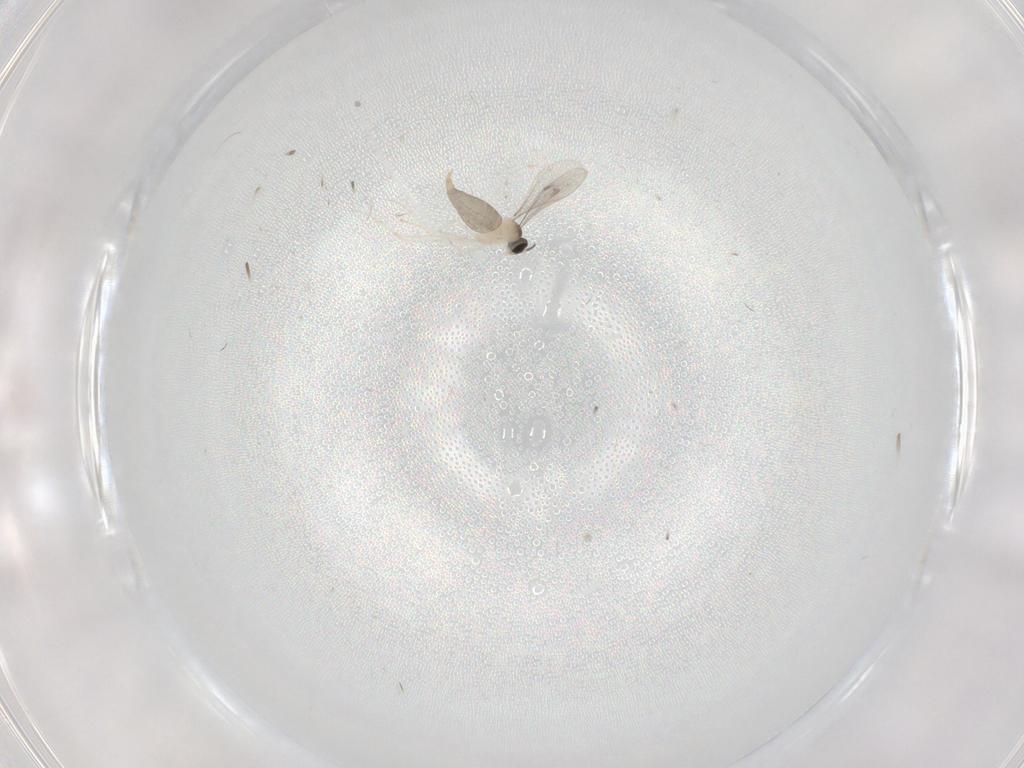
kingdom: Animalia
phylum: Arthropoda
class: Insecta
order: Diptera
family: Cecidomyiidae
